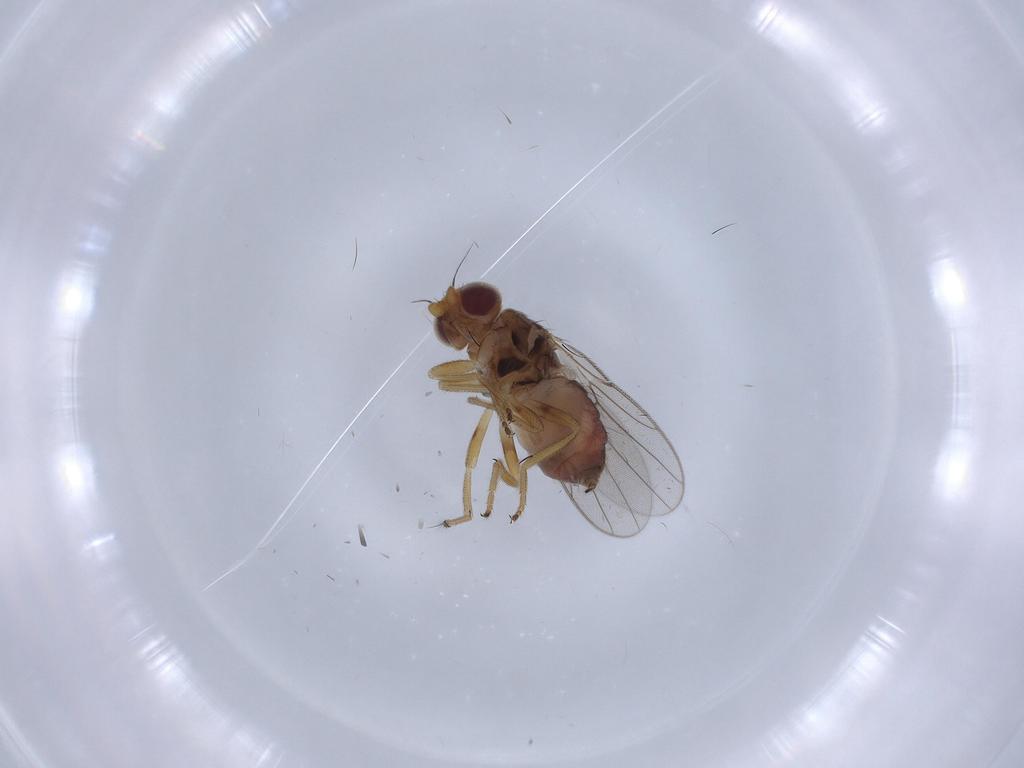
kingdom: Animalia
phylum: Arthropoda
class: Insecta
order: Diptera
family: Chloropidae
